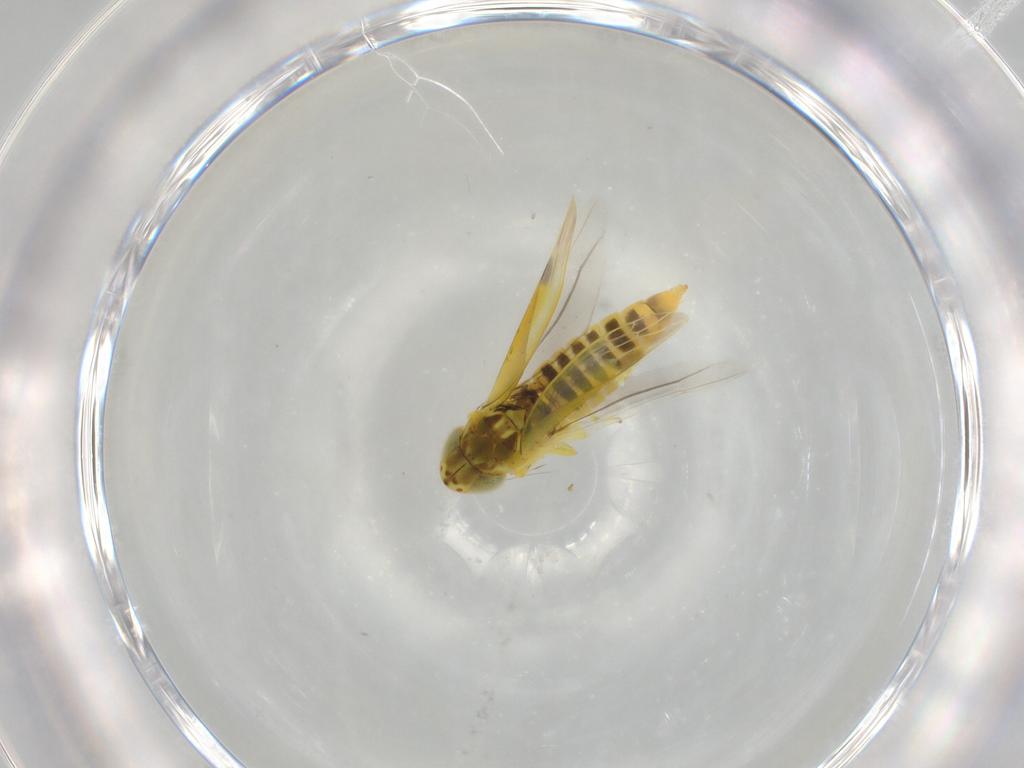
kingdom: Animalia
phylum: Arthropoda
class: Insecta
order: Hemiptera
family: Cicadellidae
